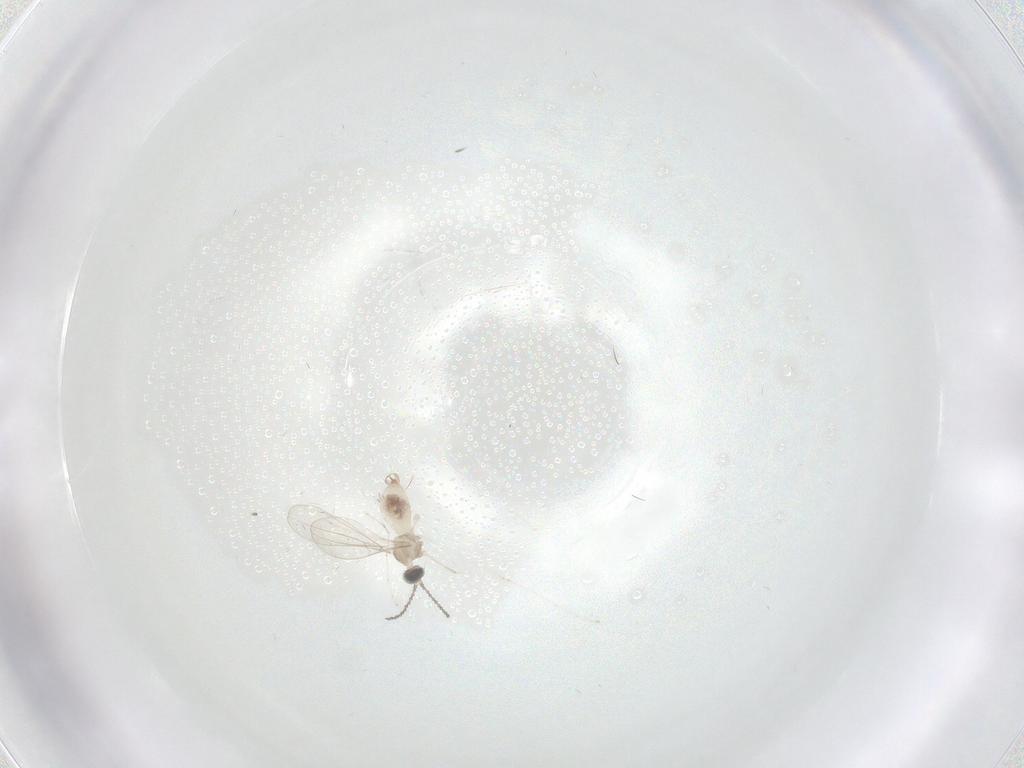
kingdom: Animalia
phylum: Arthropoda
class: Insecta
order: Diptera
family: Cecidomyiidae
